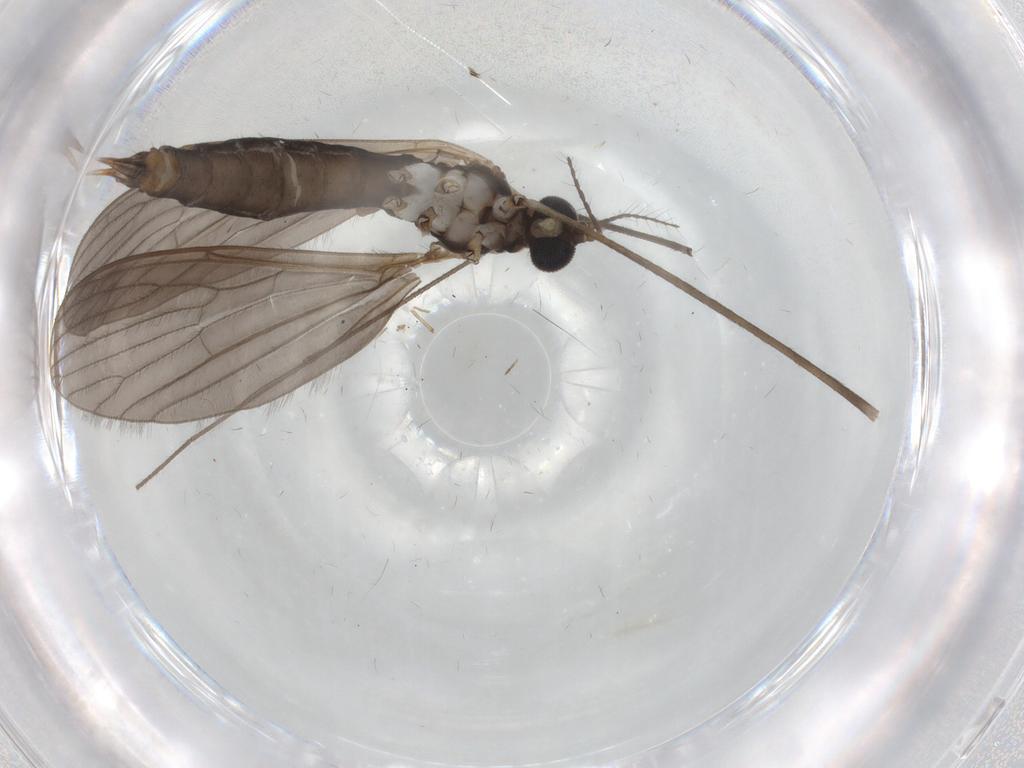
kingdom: Animalia
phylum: Arthropoda
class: Insecta
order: Diptera
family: Limoniidae
